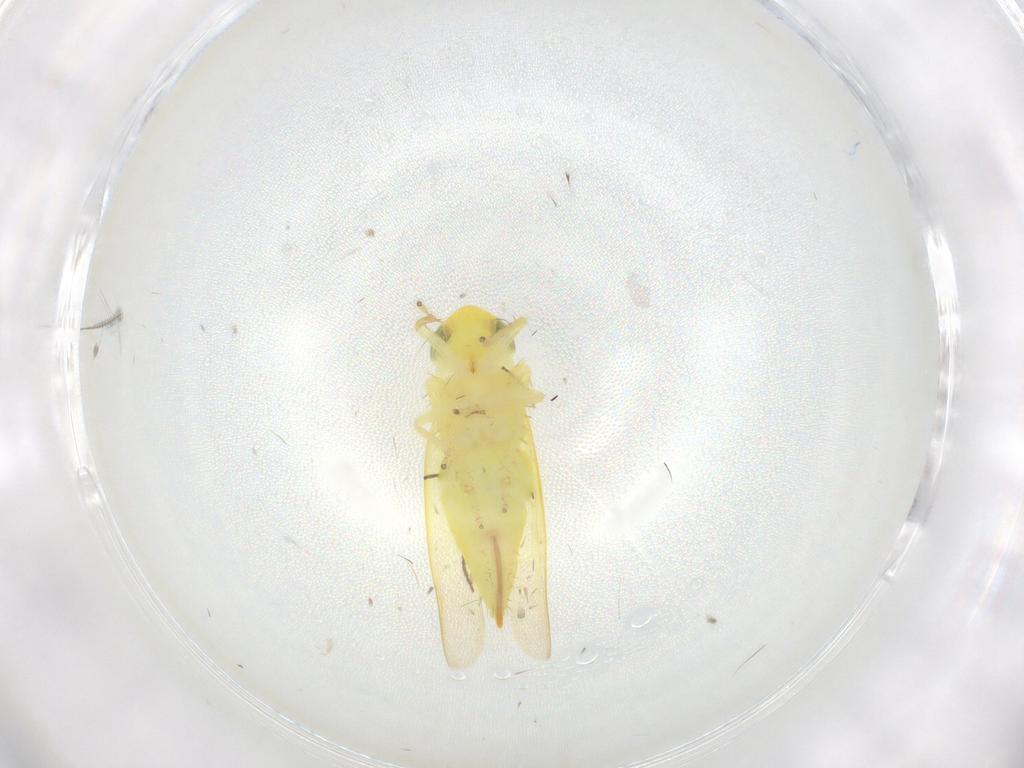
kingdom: Animalia
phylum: Arthropoda
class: Insecta
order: Hemiptera
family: Cicadellidae
